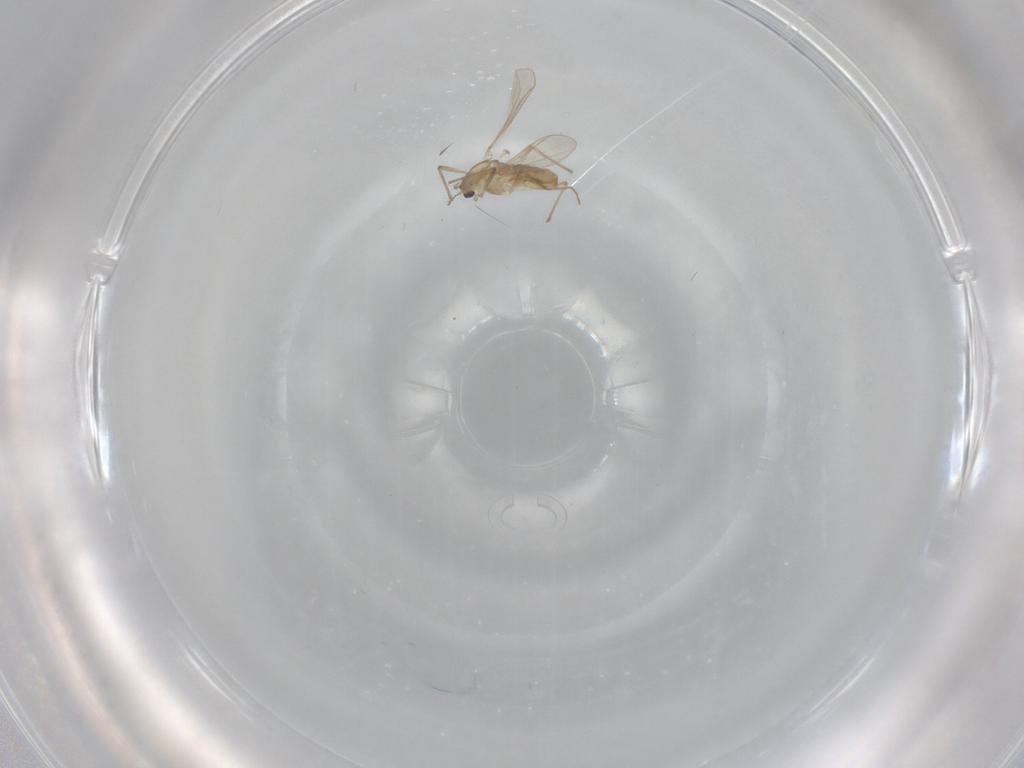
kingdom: Animalia
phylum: Arthropoda
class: Insecta
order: Diptera
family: Chironomidae
